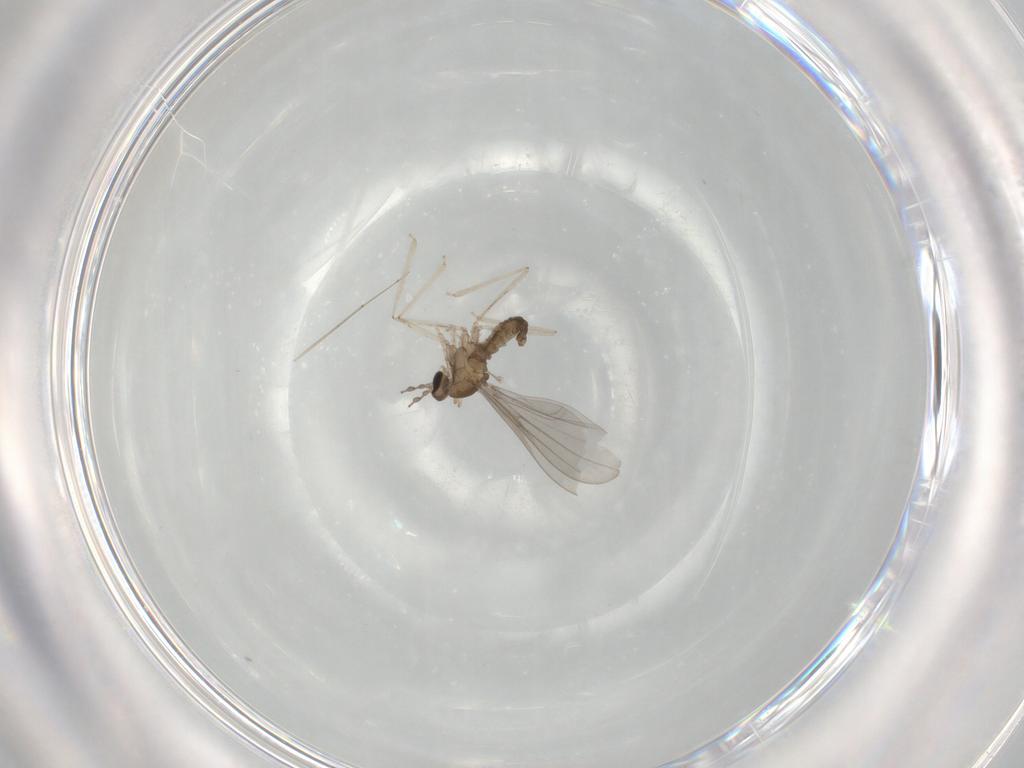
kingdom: Animalia
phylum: Arthropoda
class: Insecta
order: Diptera
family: Cecidomyiidae
